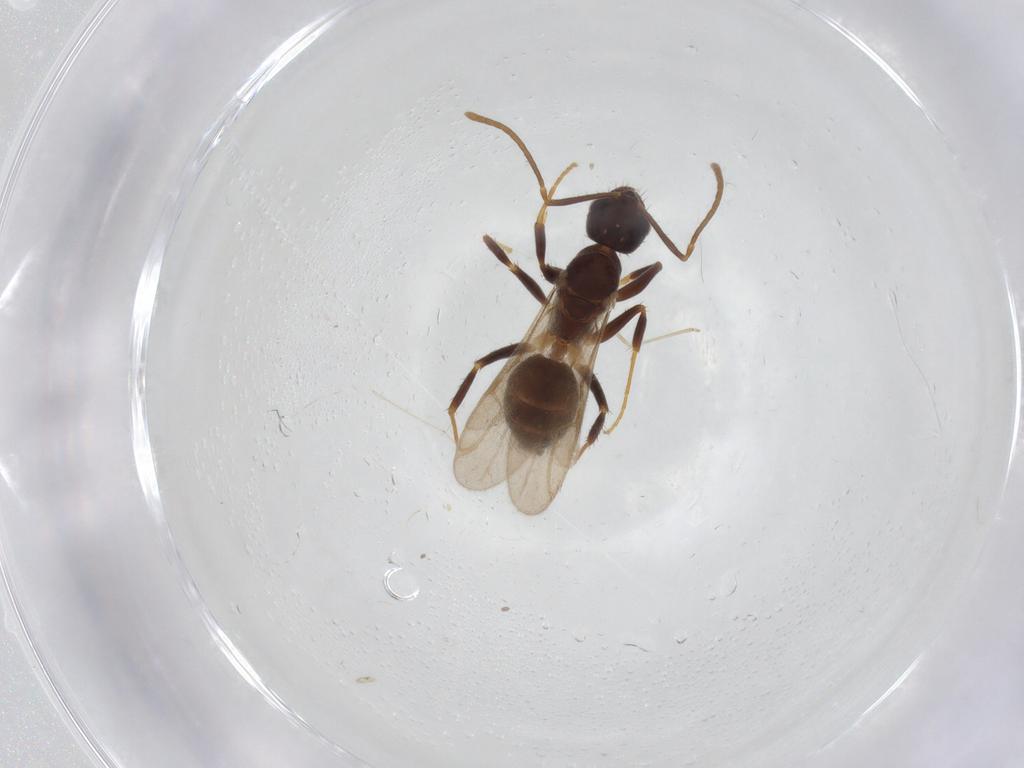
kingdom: Animalia
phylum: Arthropoda
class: Insecta
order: Hymenoptera
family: Formicidae
